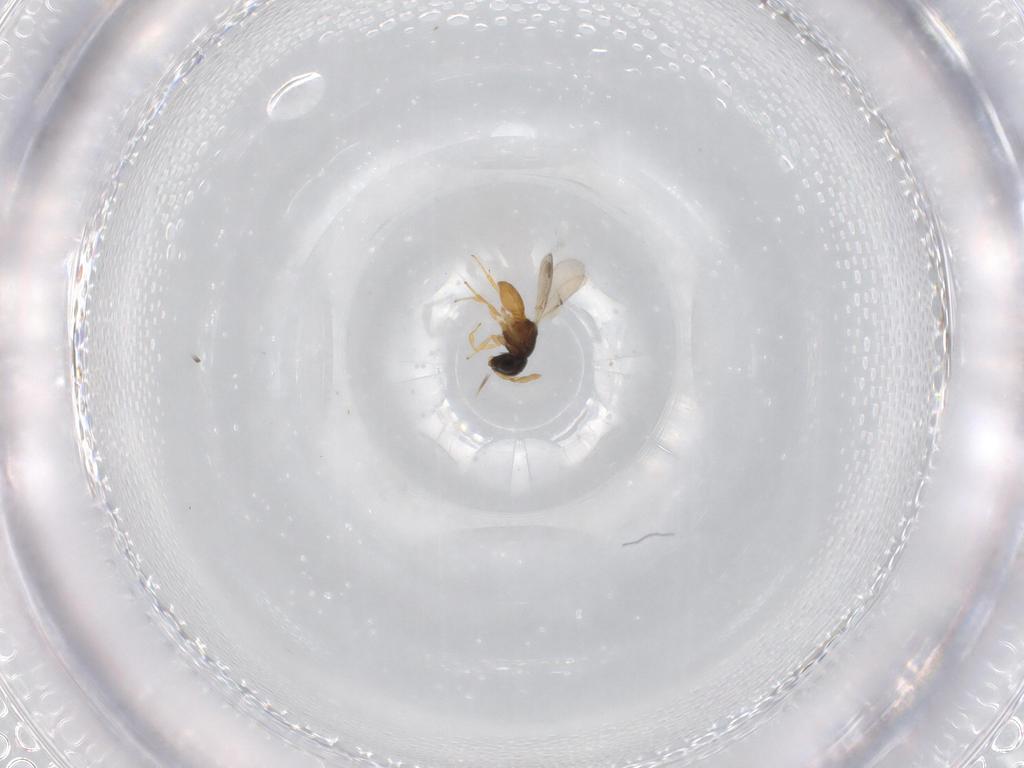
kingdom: Animalia
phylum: Arthropoda
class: Insecta
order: Hymenoptera
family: Scelionidae
